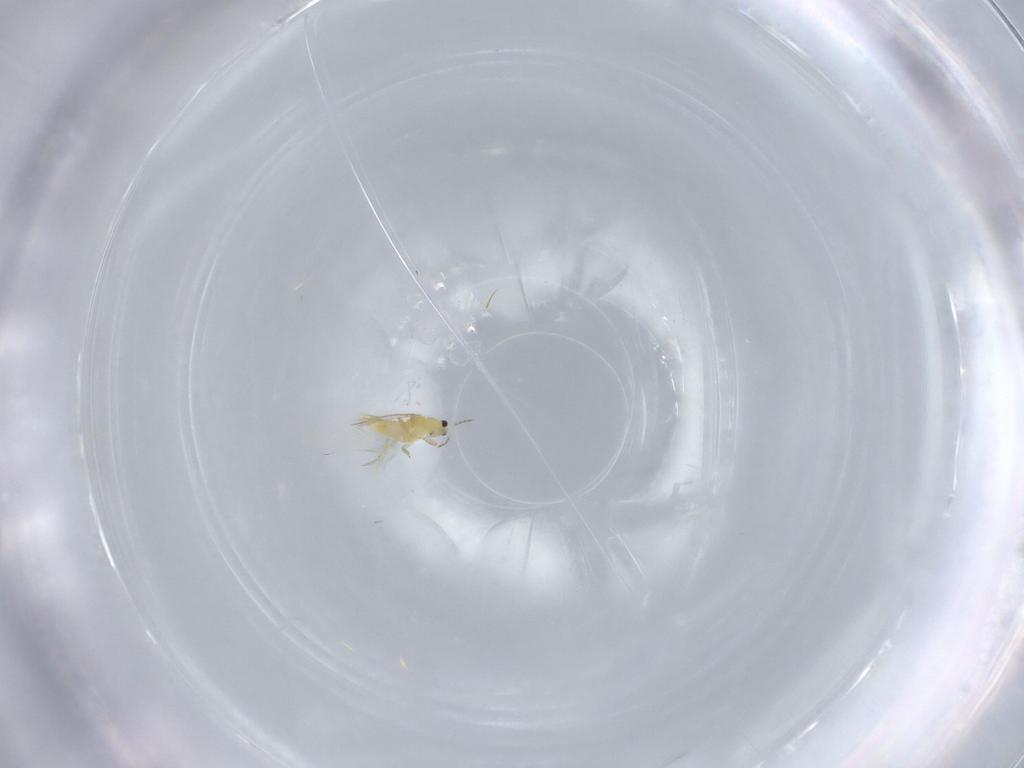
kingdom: Animalia
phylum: Arthropoda
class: Insecta
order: Thysanoptera
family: Thripidae
